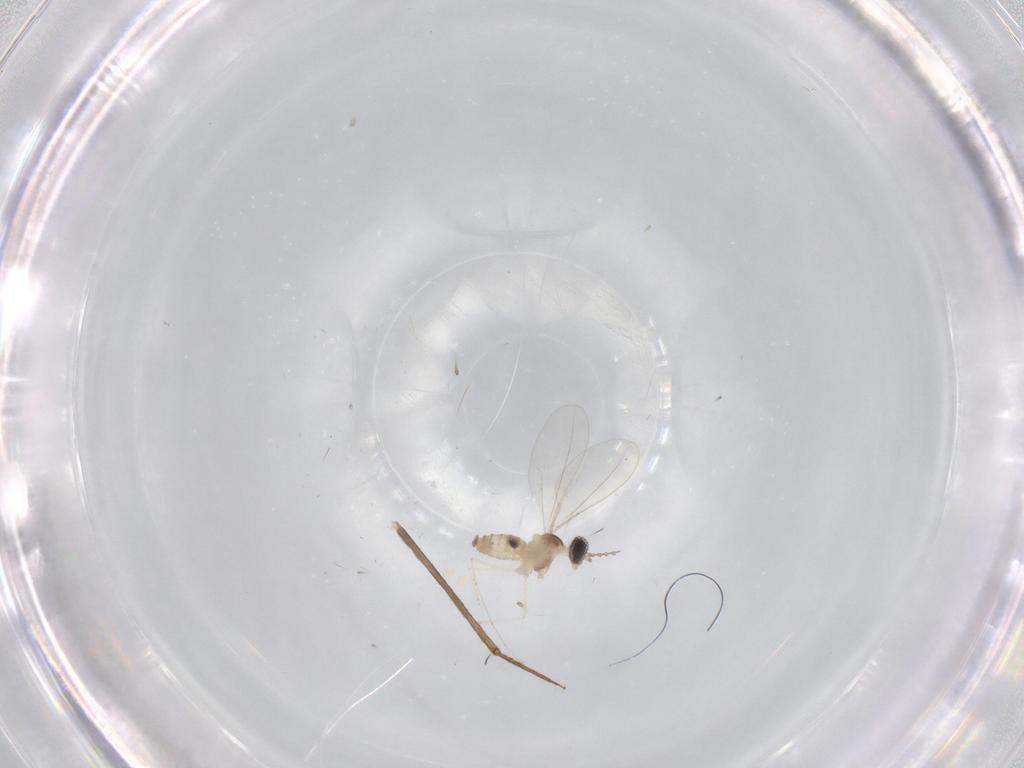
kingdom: Animalia
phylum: Arthropoda
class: Insecta
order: Diptera
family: Cecidomyiidae
